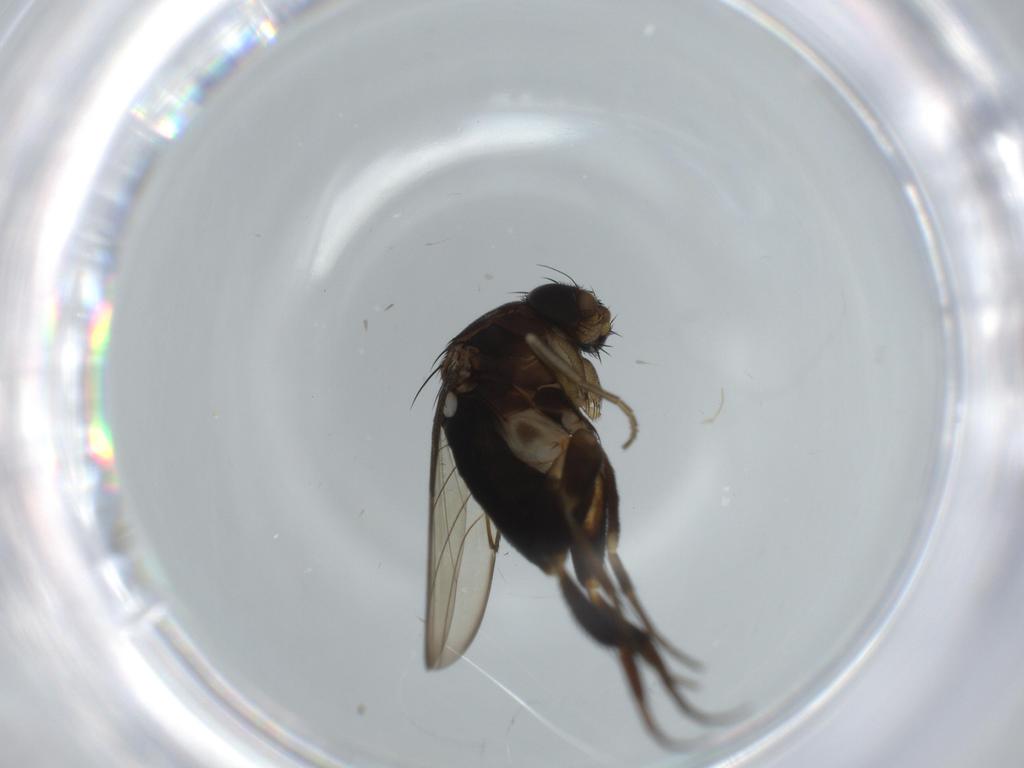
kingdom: Animalia
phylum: Arthropoda
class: Insecta
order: Diptera
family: Phoridae
